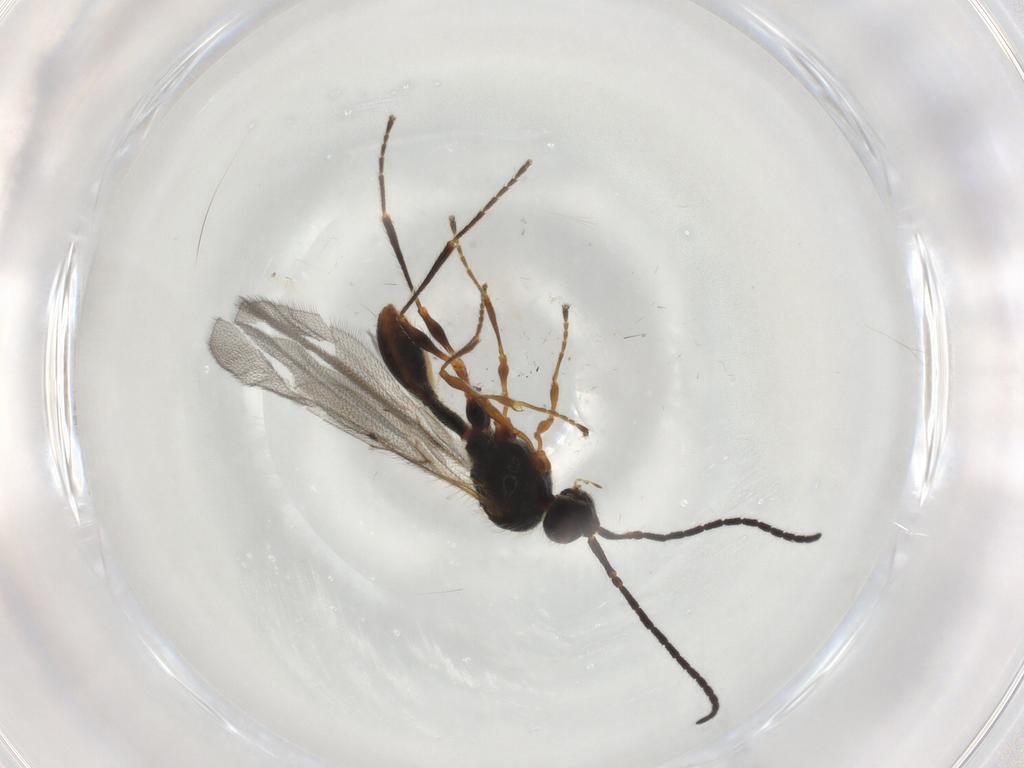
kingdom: Animalia
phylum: Arthropoda
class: Insecta
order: Hymenoptera
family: Diapriidae
